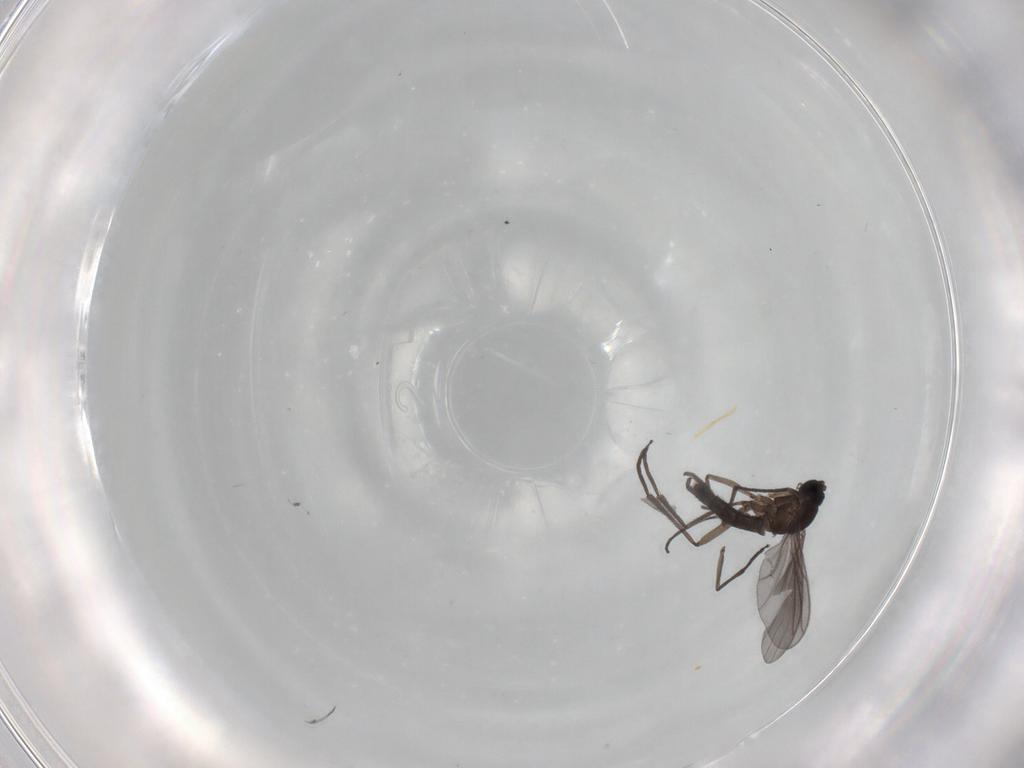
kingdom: Animalia
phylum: Arthropoda
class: Insecta
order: Diptera
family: Sciaridae
